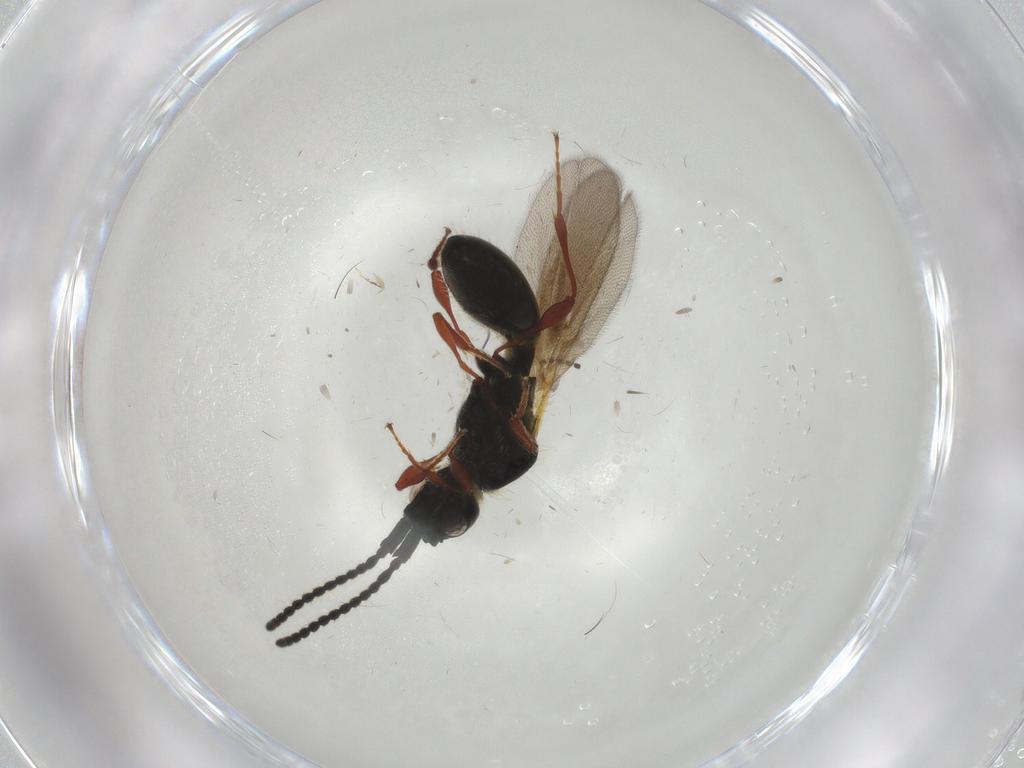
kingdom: Animalia
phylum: Arthropoda
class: Insecta
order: Hymenoptera
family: Diapriidae
